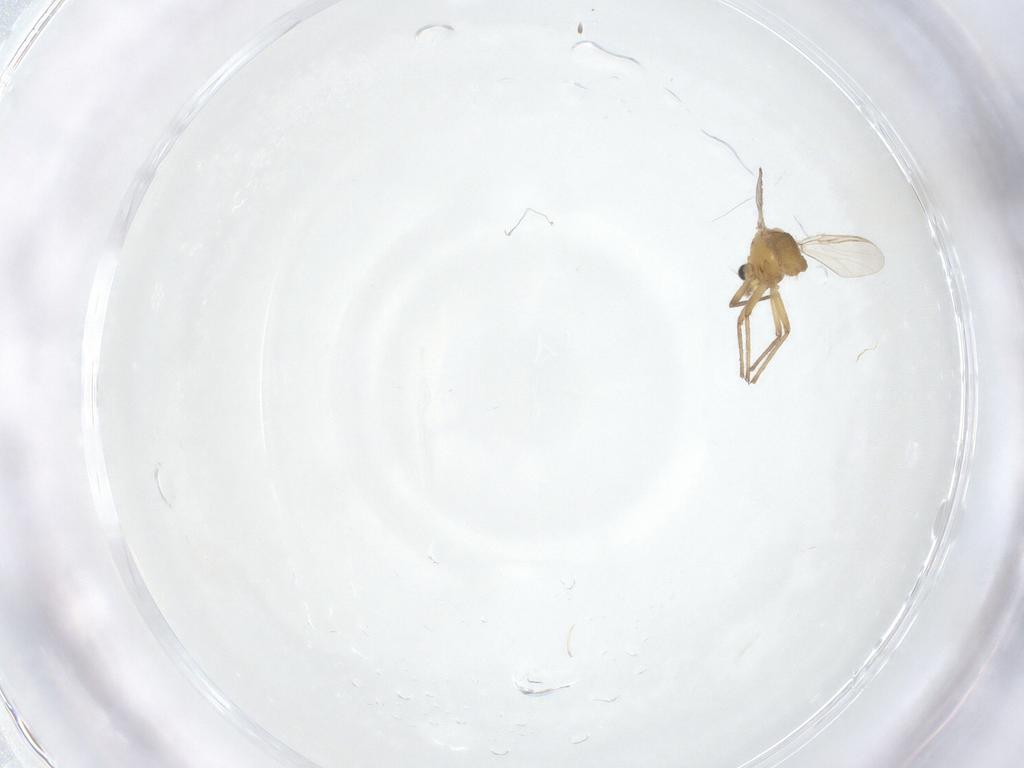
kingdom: Animalia
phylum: Arthropoda
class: Insecta
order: Diptera
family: Chironomidae
